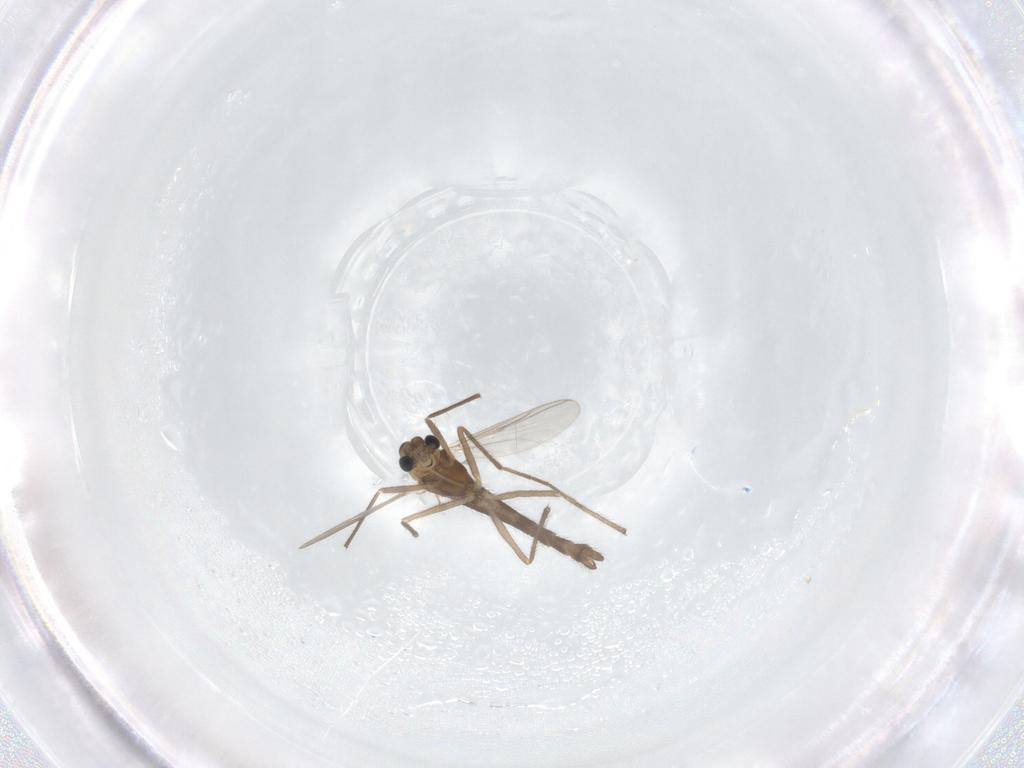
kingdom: Animalia
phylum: Arthropoda
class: Insecta
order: Diptera
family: Chironomidae
